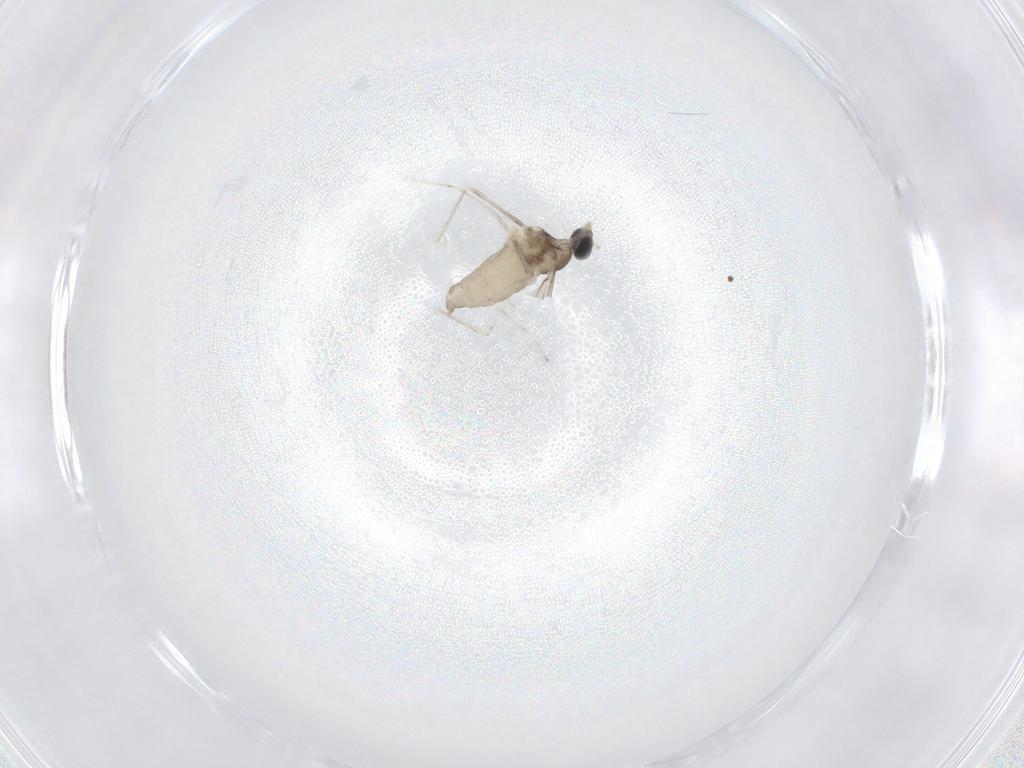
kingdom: Animalia
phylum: Arthropoda
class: Insecta
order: Diptera
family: Cecidomyiidae
